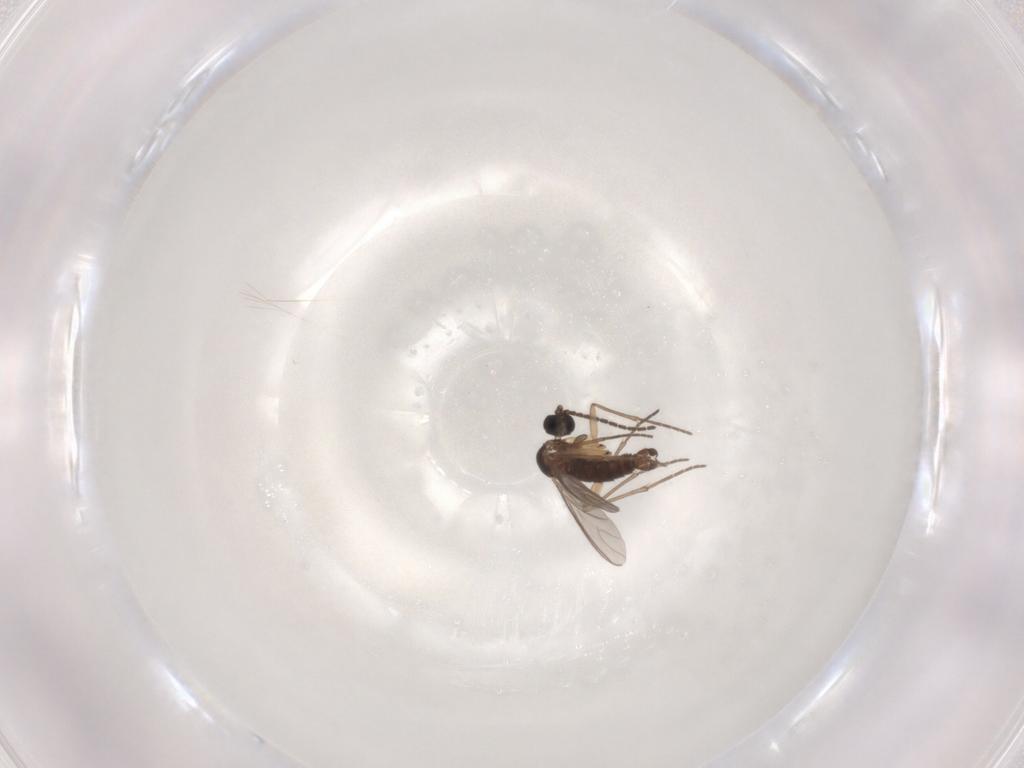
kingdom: Animalia
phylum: Arthropoda
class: Insecta
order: Diptera
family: Sciaridae
